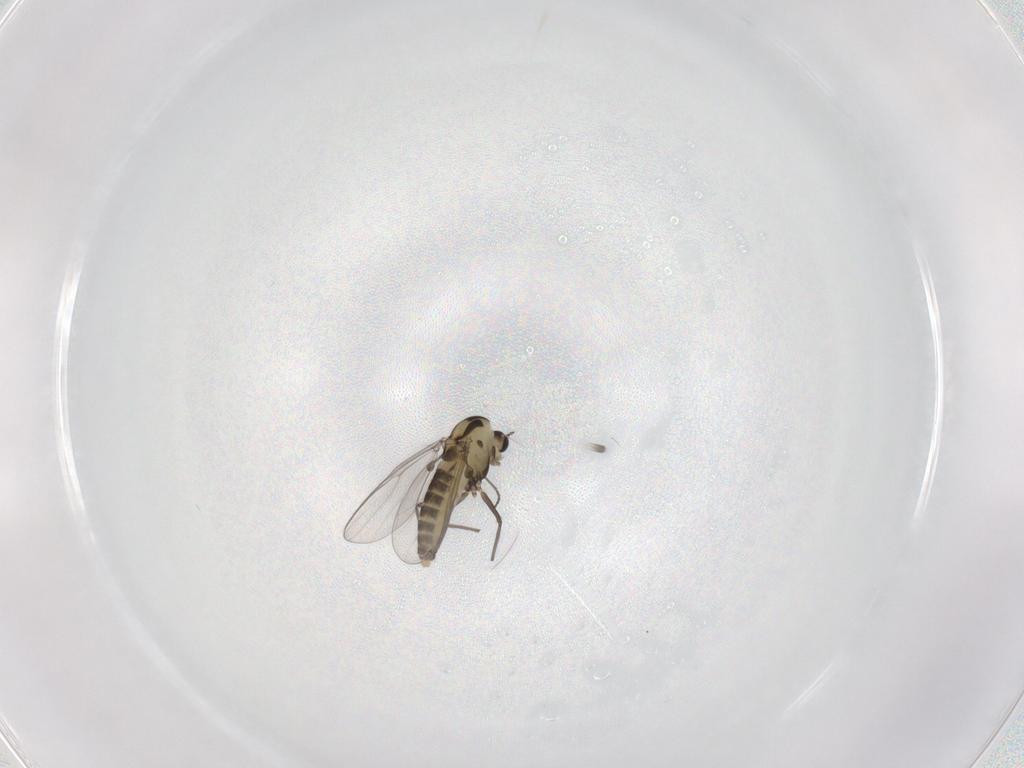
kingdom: Animalia
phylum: Arthropoda
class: Insecta
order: Diptera
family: Chironomidae
